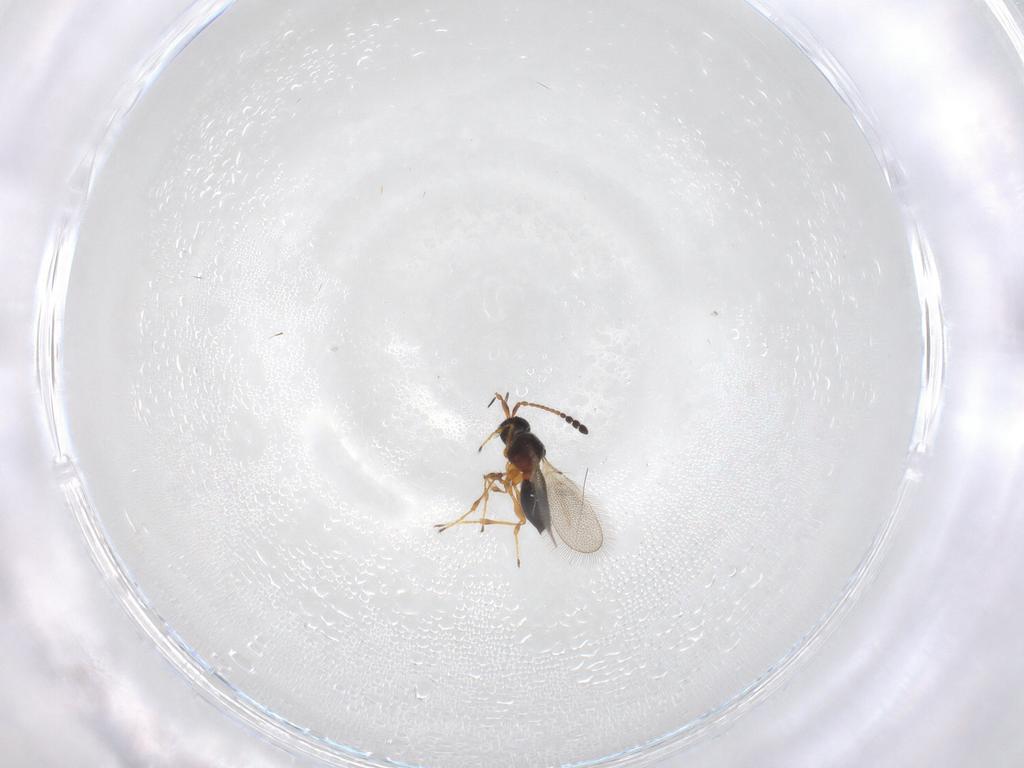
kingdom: Animalia
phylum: Arthropoda
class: Insecta
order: Hymenoptera
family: Diapriidae
